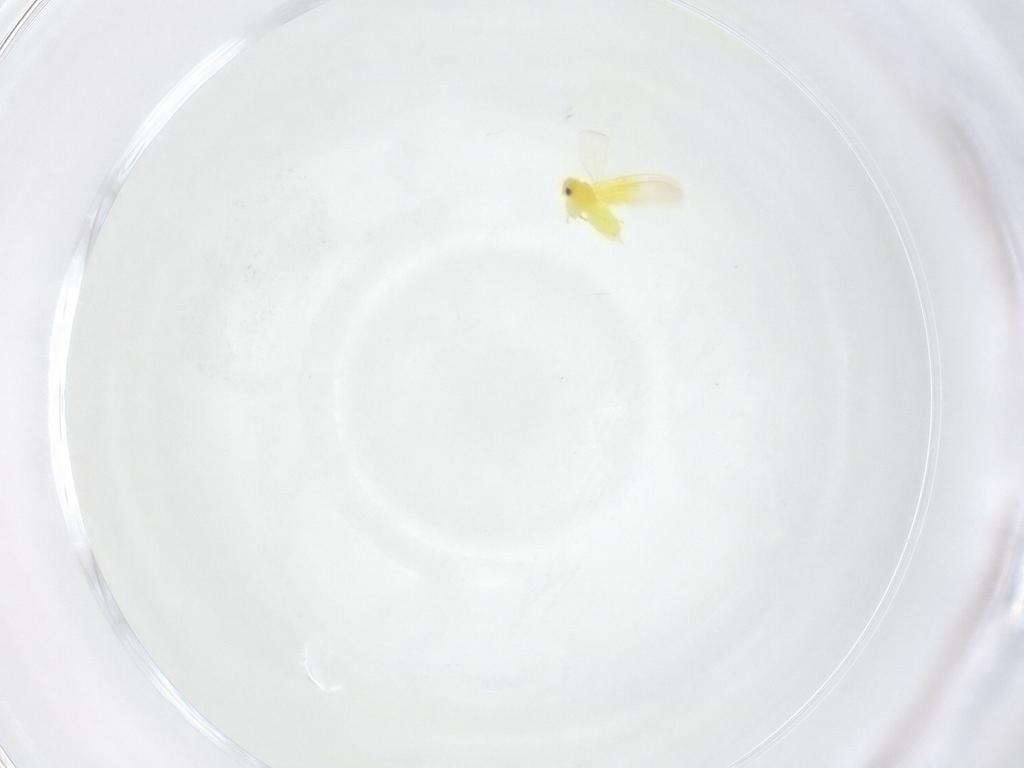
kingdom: Animalia
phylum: Arthropoda
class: Insecta
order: Hemiptera
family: Aleyrodidae
